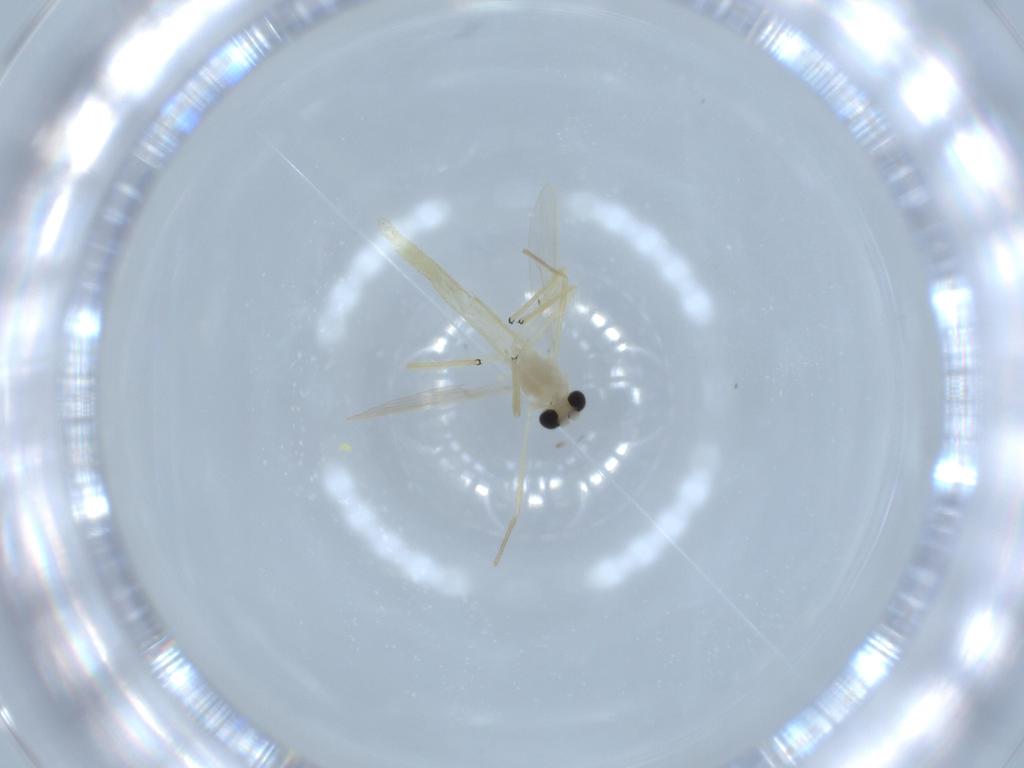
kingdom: Animalia
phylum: Arthropoda
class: Insecta
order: Diptera
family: Chironomidae
